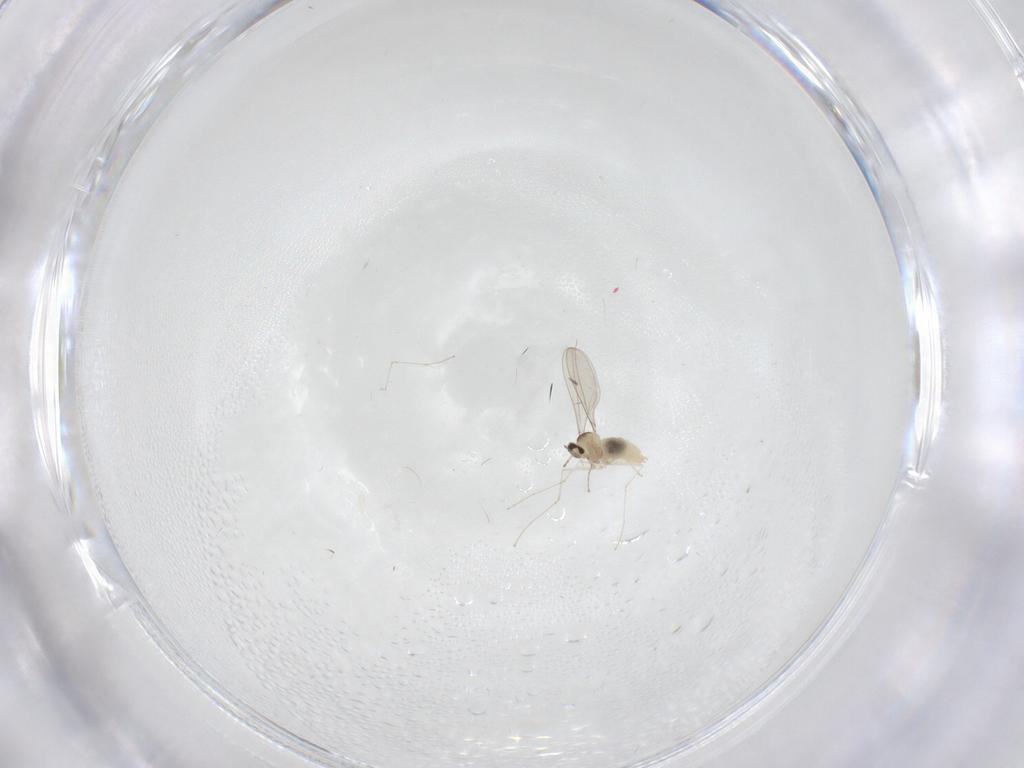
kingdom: Animalia
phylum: Arthropoda
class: Insecta
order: Diptera
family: Cecidomyiidae
